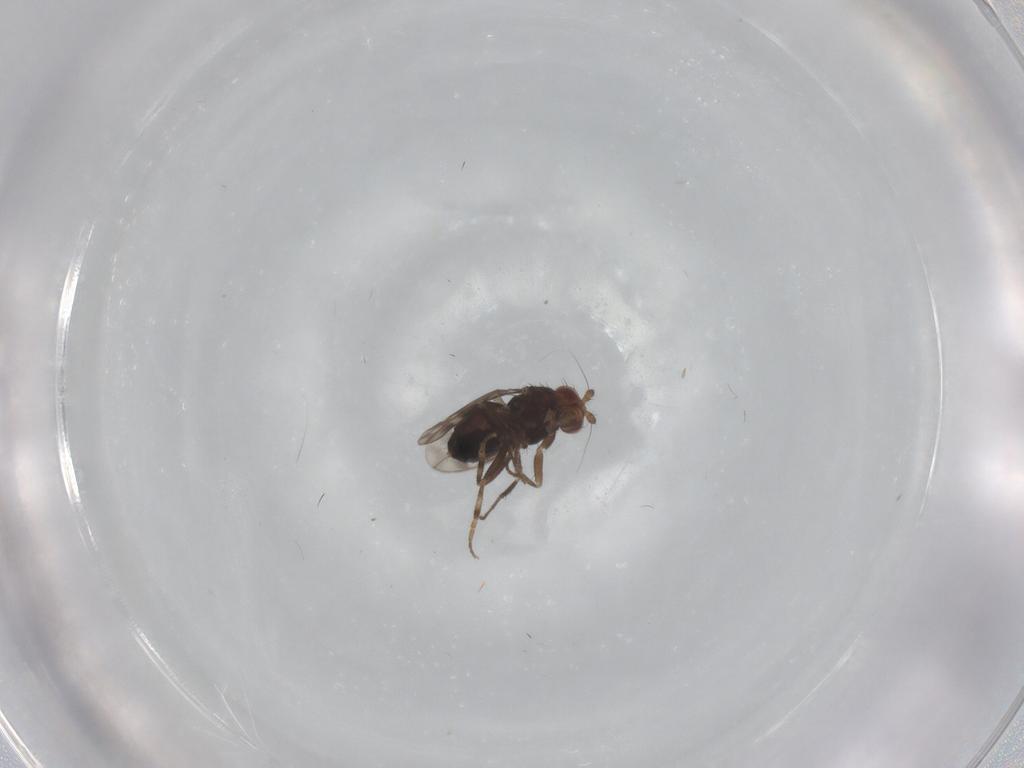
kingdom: Animalia
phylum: Arthropoda
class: Insecta
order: Diptera
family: Sphaeroceridae
